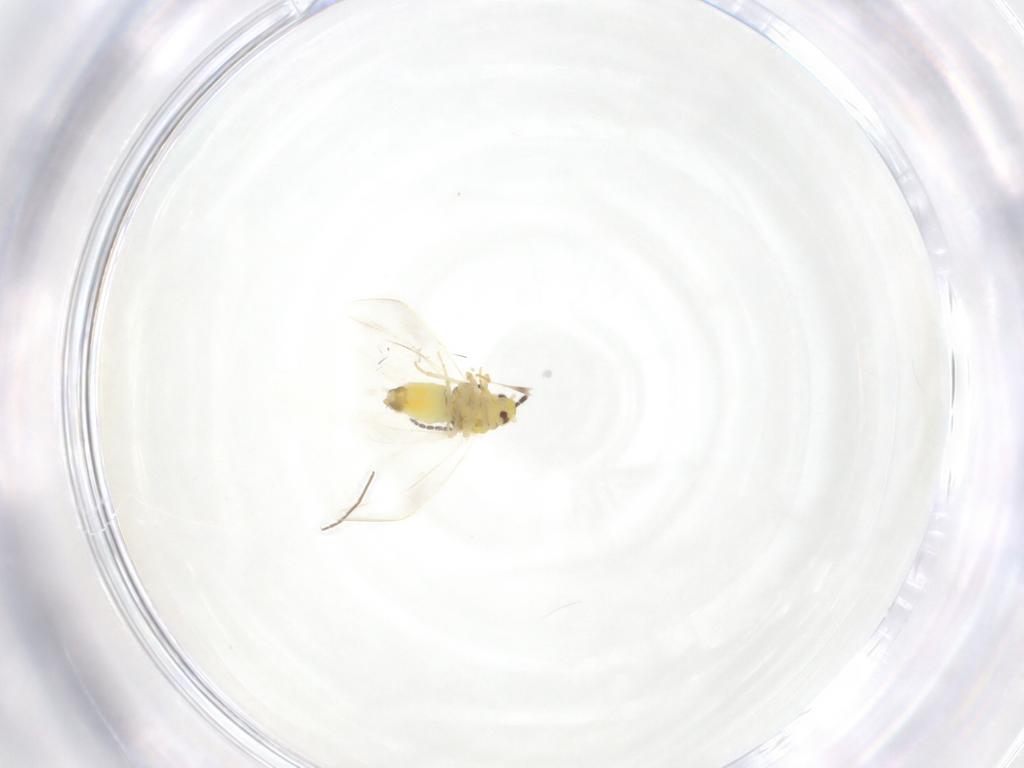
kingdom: Animalia
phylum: Arthropoda
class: Insecta
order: Hemiptera
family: Aleyrodidae
